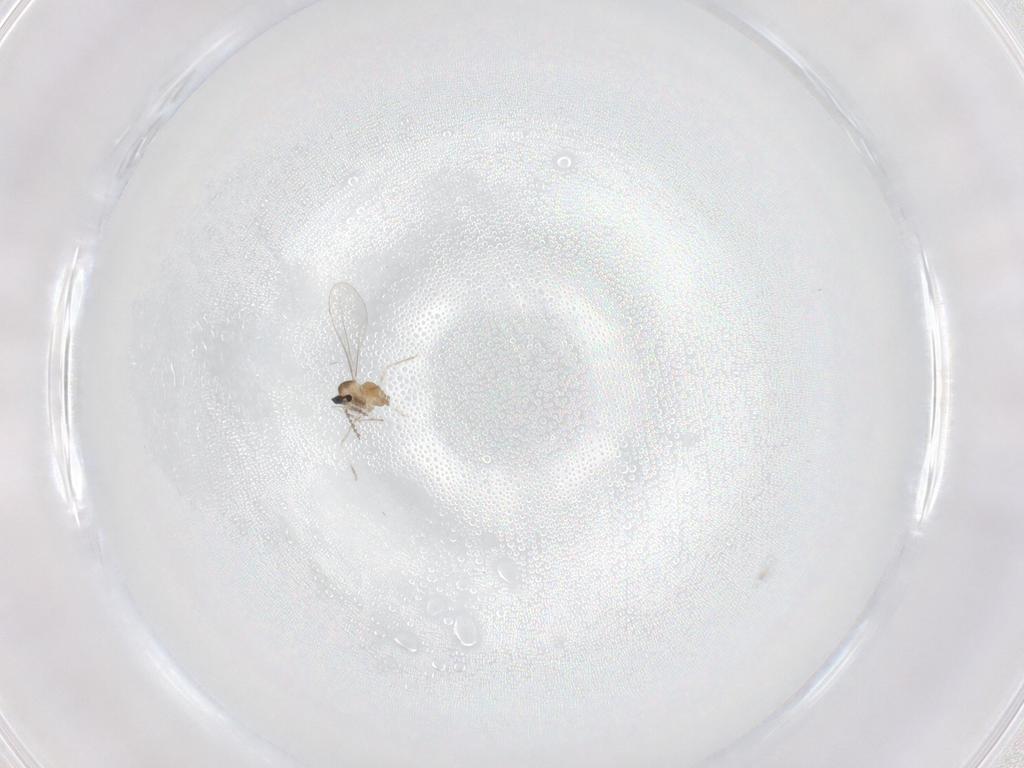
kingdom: Animalia
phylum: Arthropoda
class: Insecta
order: Diptera
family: Cecidomyiidae
